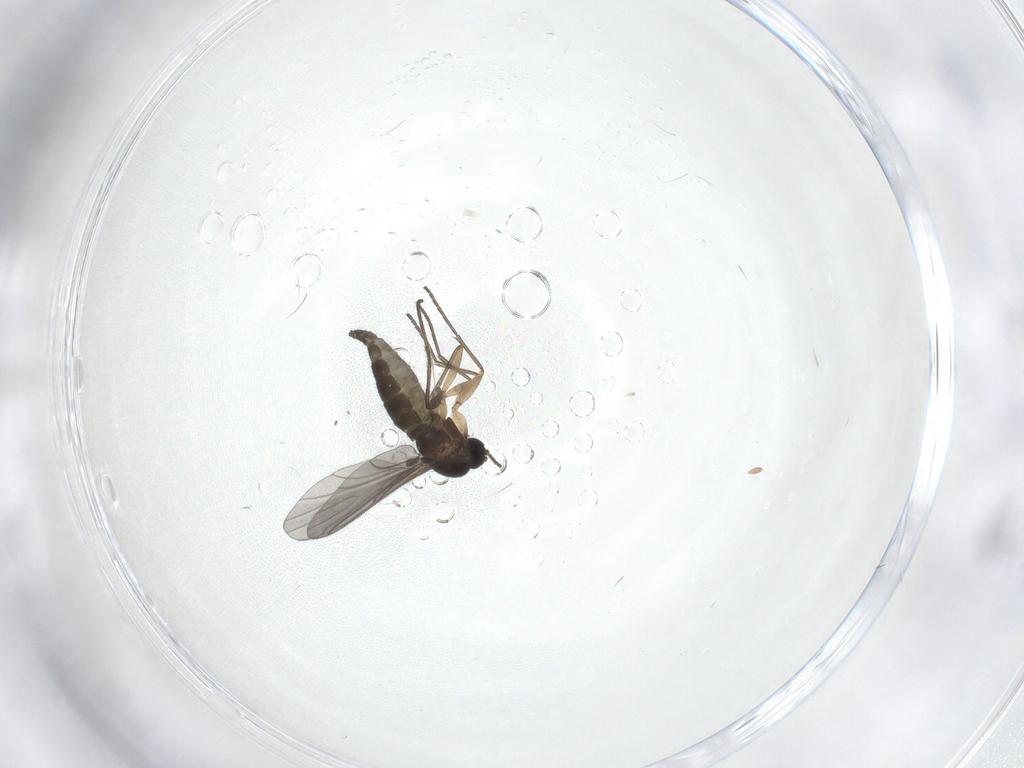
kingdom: Animalia
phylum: Arthropoda
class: Insecta
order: Diptera
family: Sciaridae
